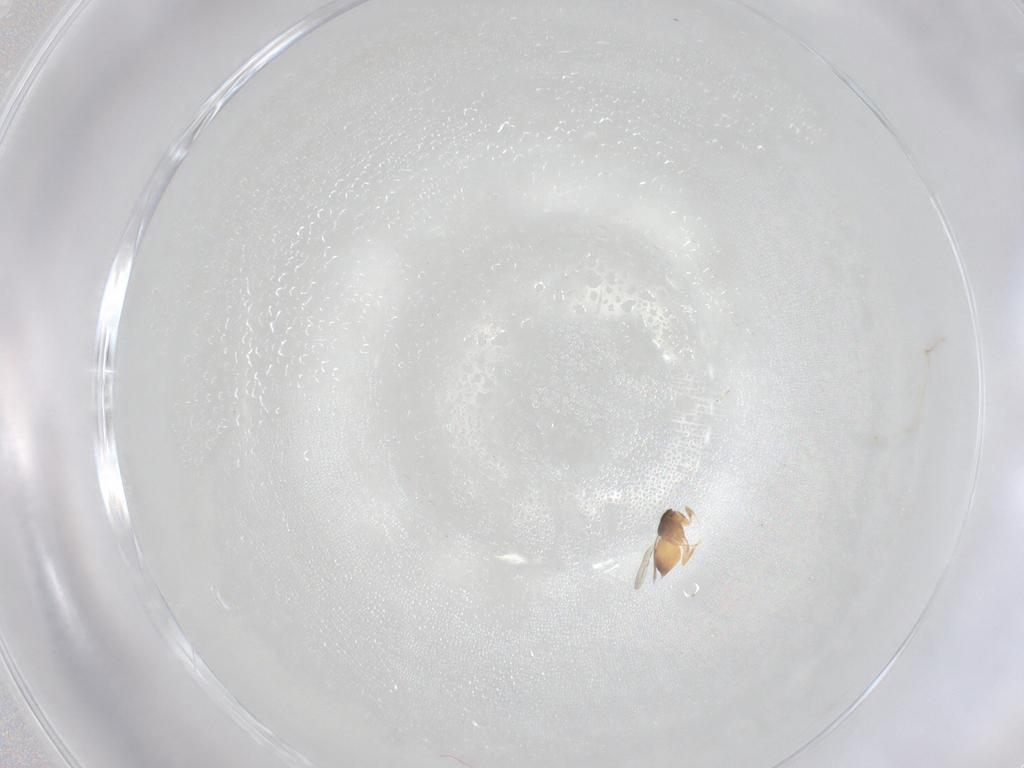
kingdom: Animalia
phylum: Arthropoda
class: Insecta
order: Hymenoptera
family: Ceraphronidae
